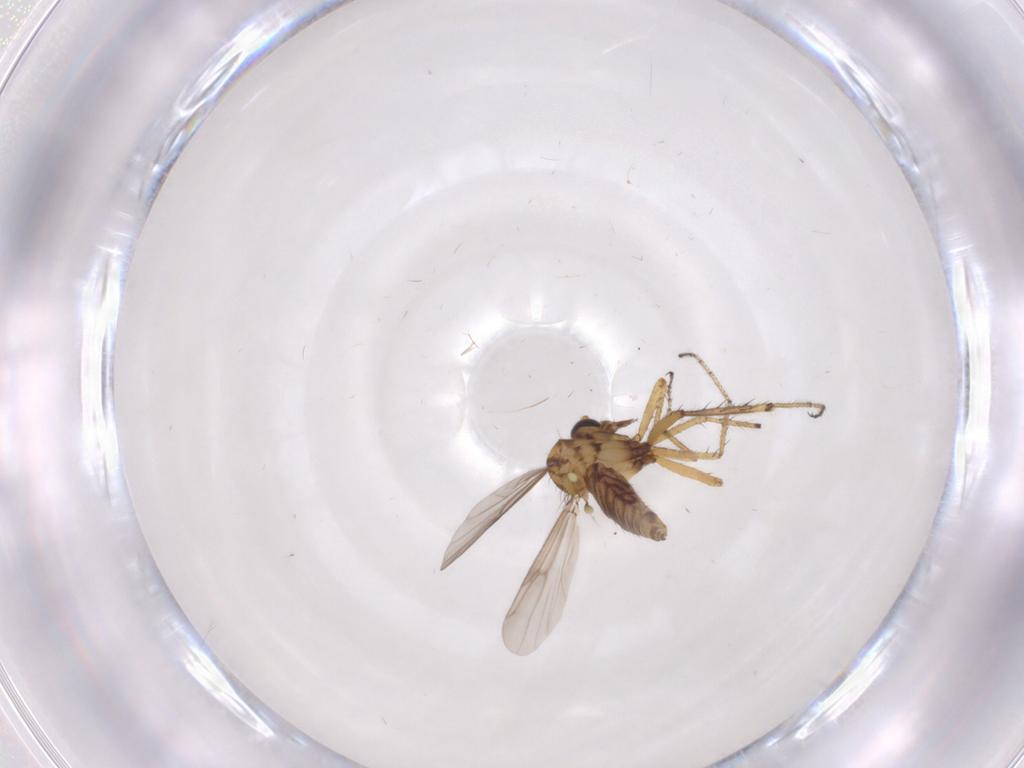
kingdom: Animalia
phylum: Arthropoda
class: Insecta
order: Diptera
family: Cecidomyiidae
